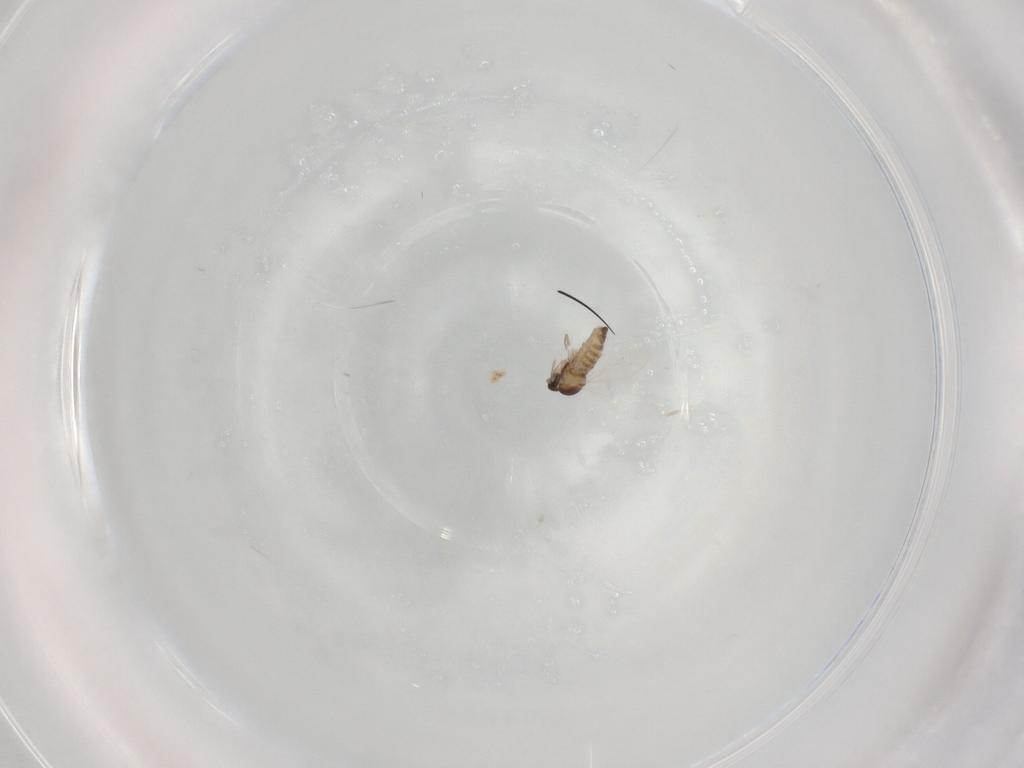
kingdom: Animalia
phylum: Arthropoda
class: Insecta
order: Diptera
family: Cecidomyiidae
